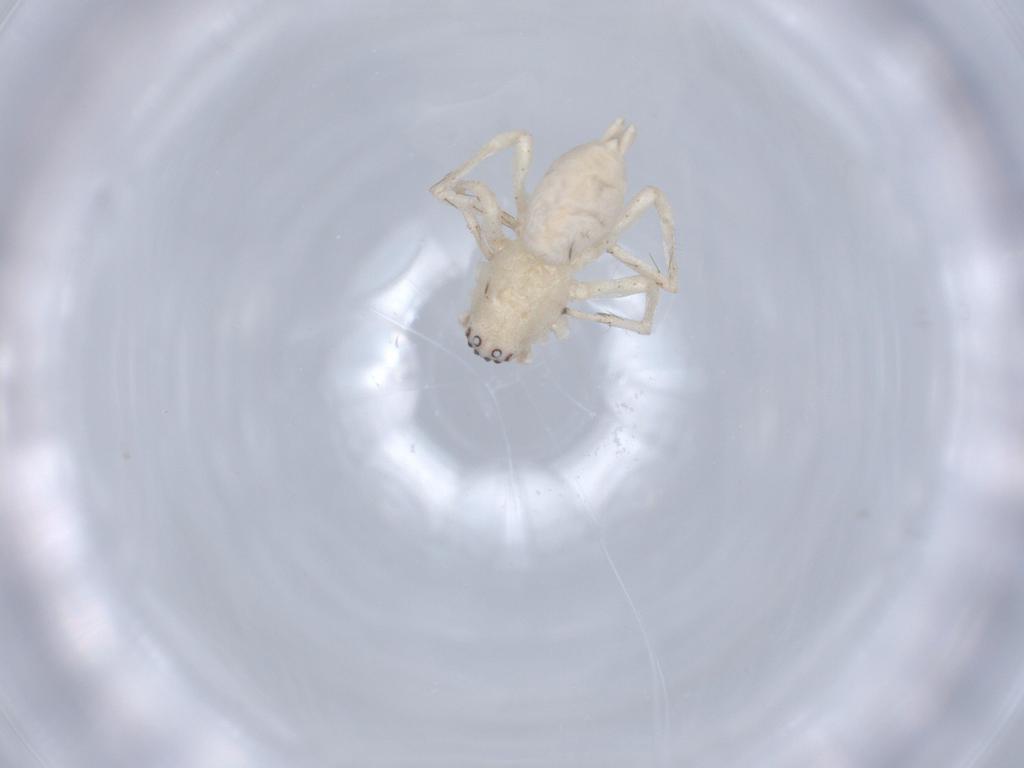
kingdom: Animalia
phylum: Arthropoda
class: Arachnida
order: Araneae
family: Clubionidae
